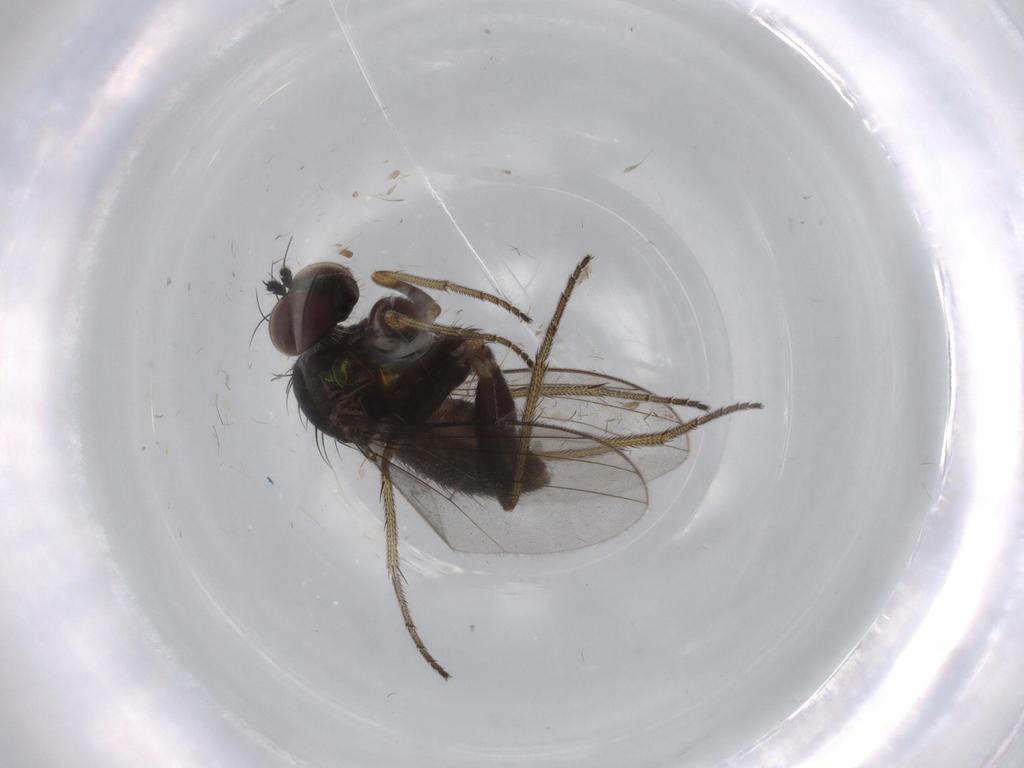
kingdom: Animalia
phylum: Arthropoda
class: Insecta
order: Diptera
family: Dolichopodidae
